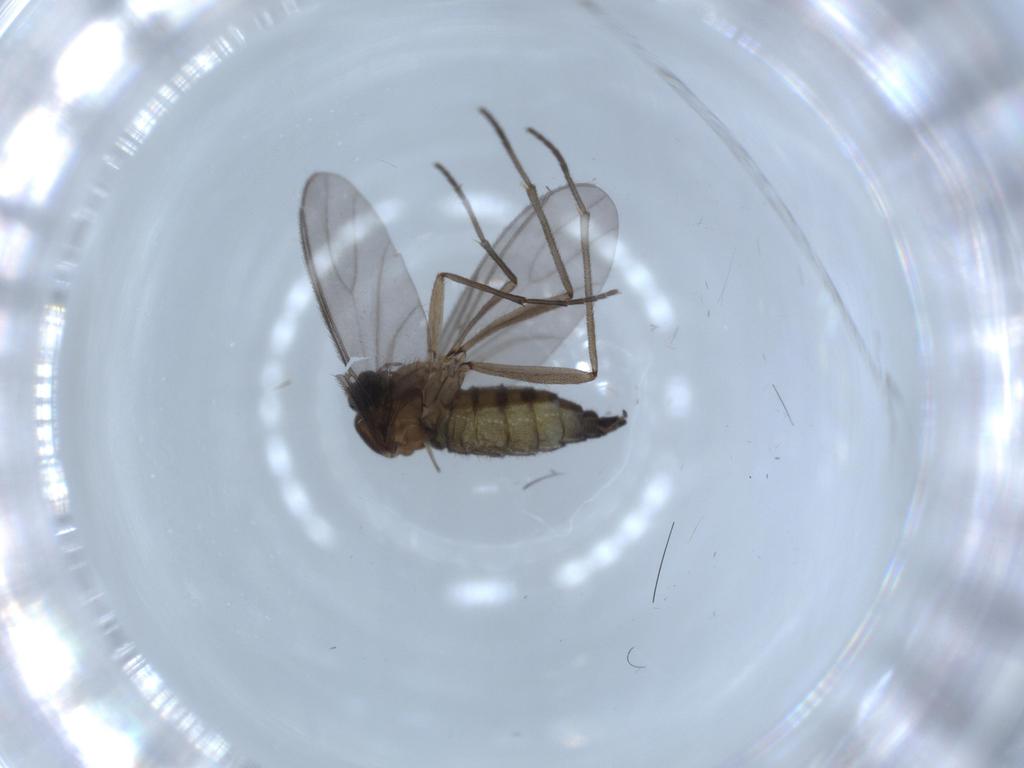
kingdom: Animalia
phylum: Arthropoda
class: Insecta
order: Diptera
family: Sciaridae
